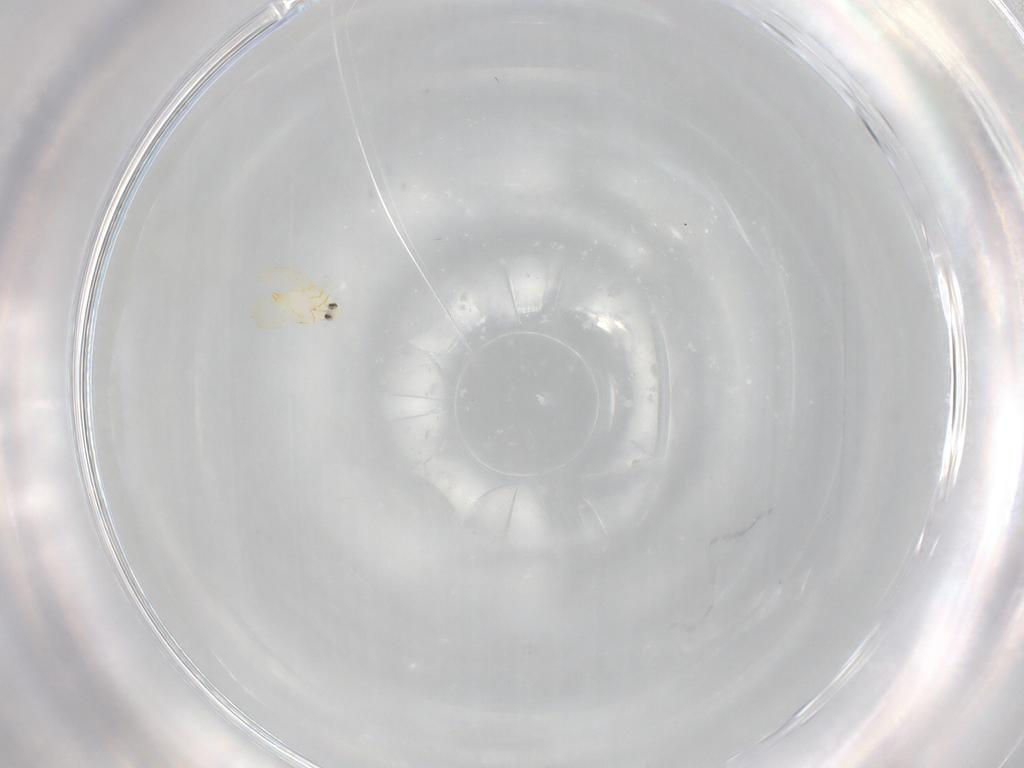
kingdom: Animalia
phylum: Arthropoda
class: Insecta
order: Hemiptera
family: Aleyrodidae
